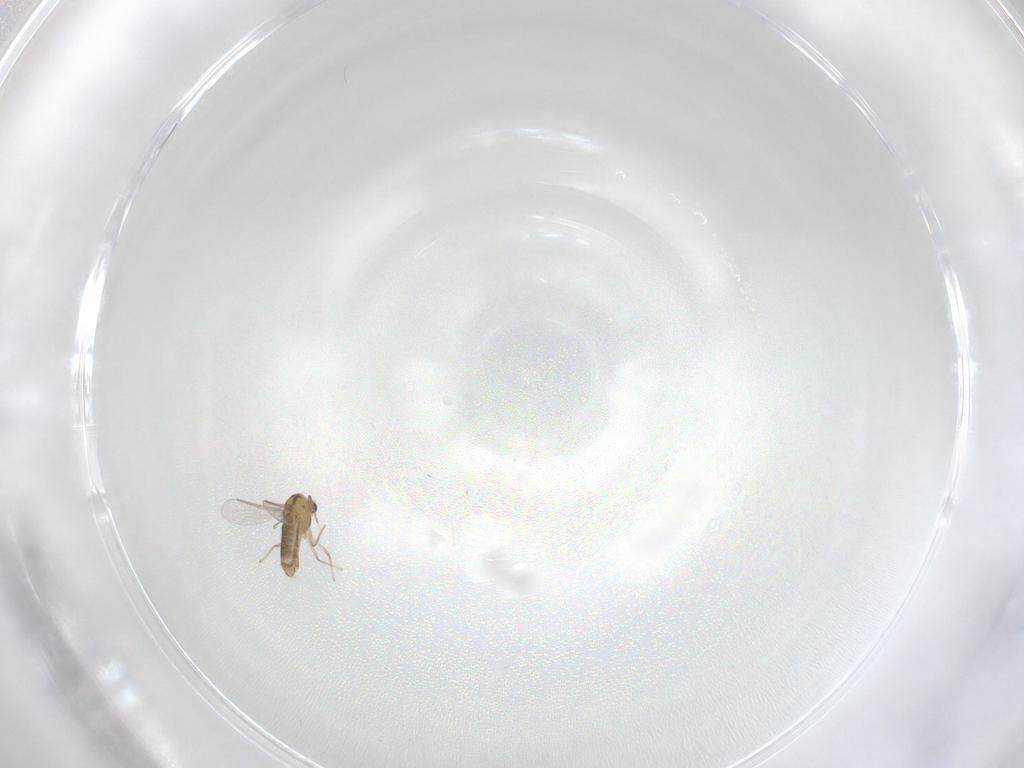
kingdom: Animalia
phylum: Arthropoda
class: Insecta
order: Diptera
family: Chironomidae
